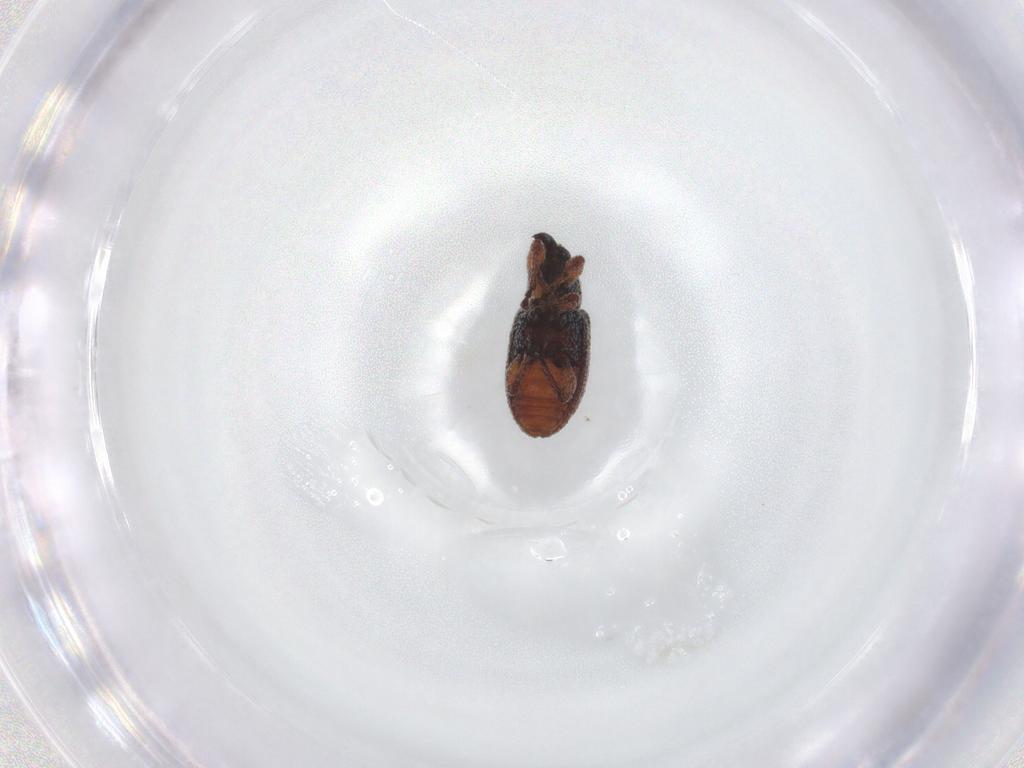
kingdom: Animalia
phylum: Arthropoda
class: Insecta
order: Coleoptera
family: Curculionidae
